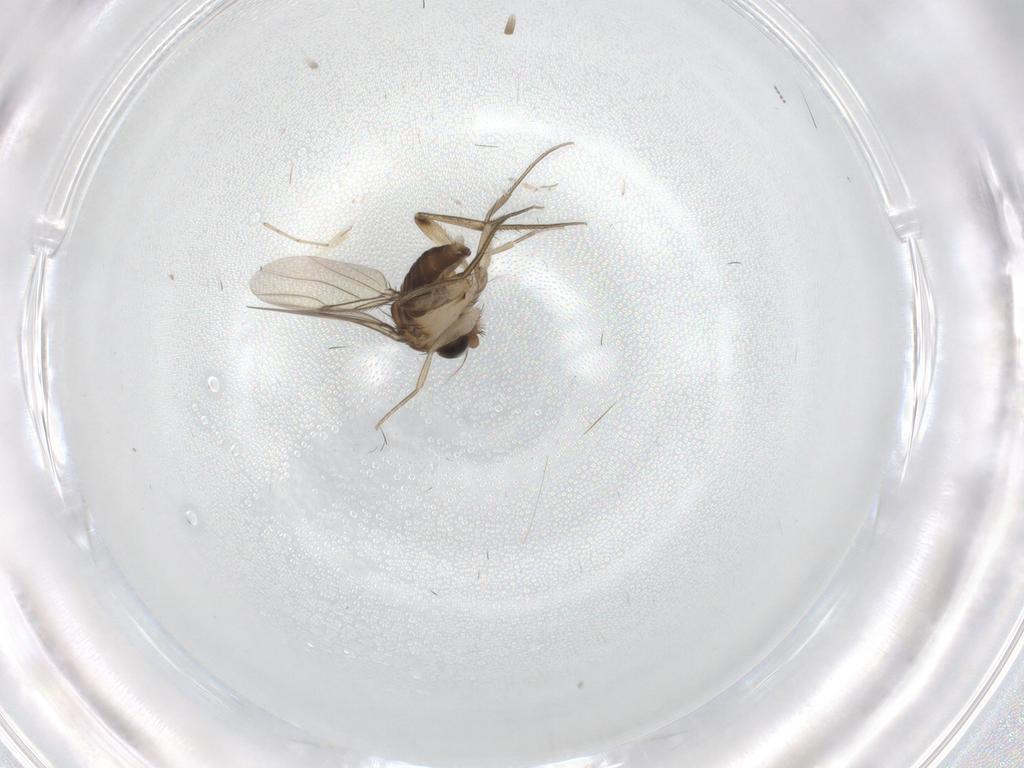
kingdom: Animalia
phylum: Arthropoda
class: Insecta
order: Diptera
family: Phoridae
